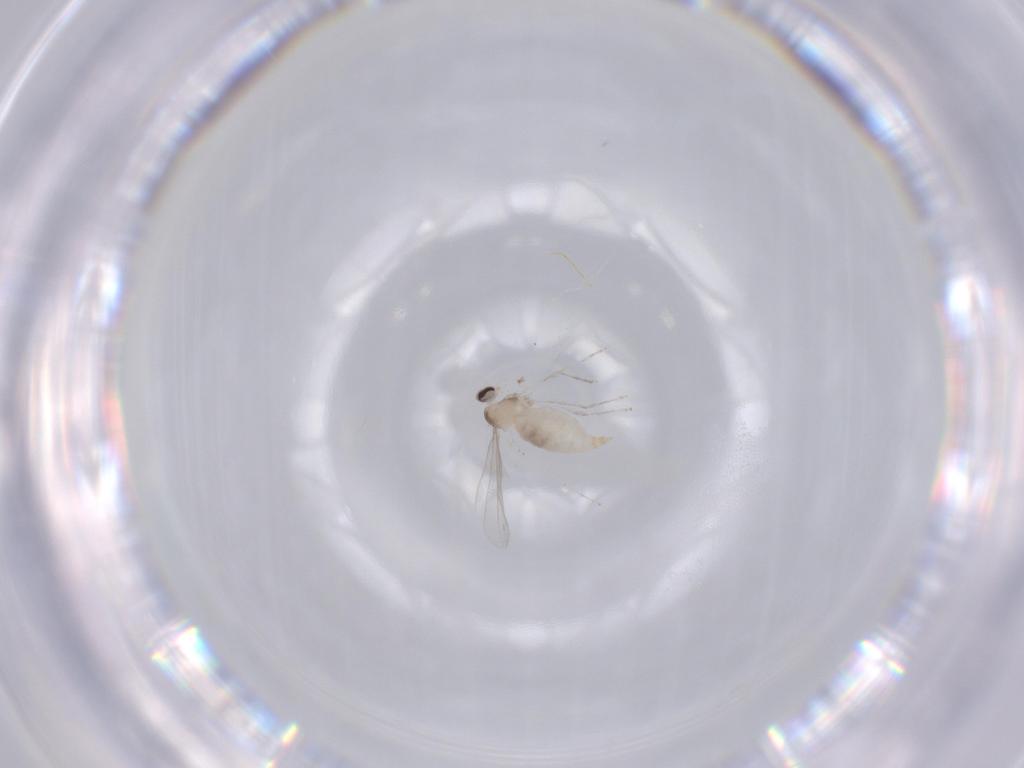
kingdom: Animalia
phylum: Arthropoda
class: Insecta
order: Diptera
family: Cecidomyiidae
